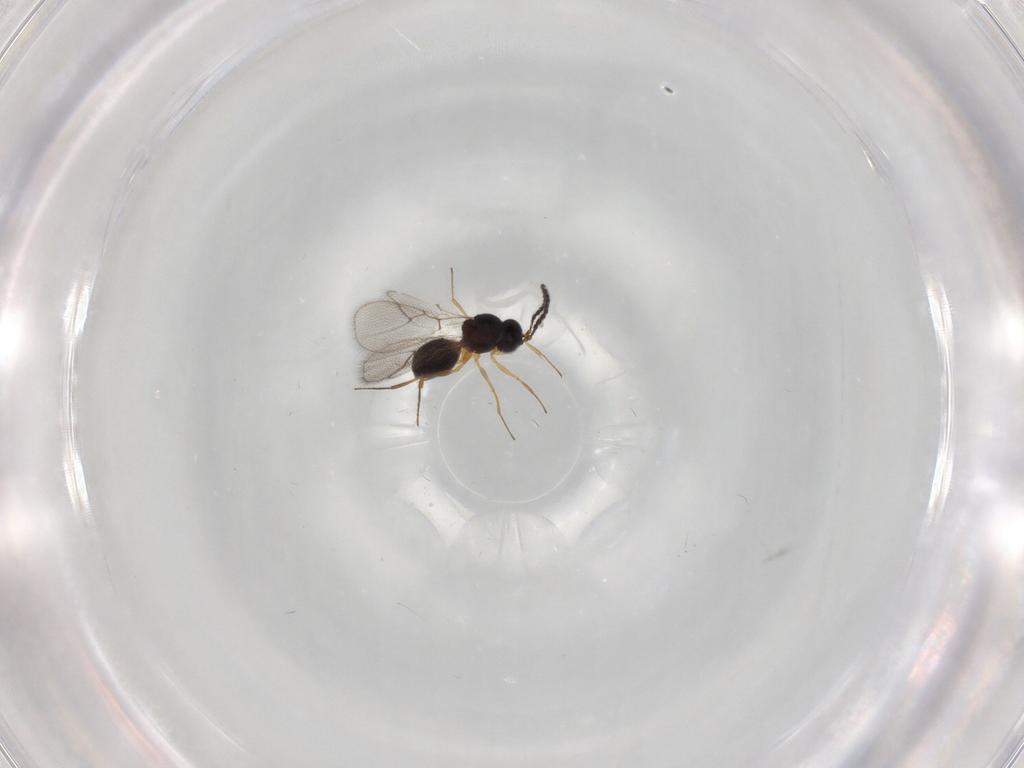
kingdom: Animalia
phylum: Arthropoda
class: Insecta
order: Hymenoptera
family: Figitidae
